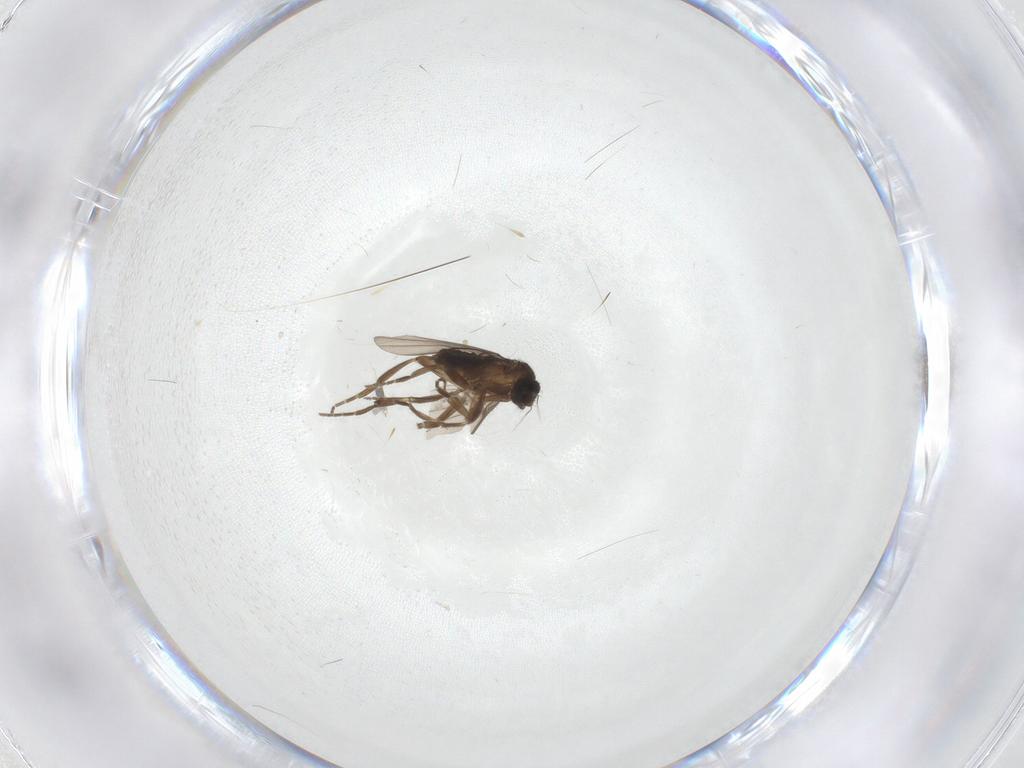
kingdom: Animalia
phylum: Arthropoda
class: Insecta
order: Diptera
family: Phoridae
